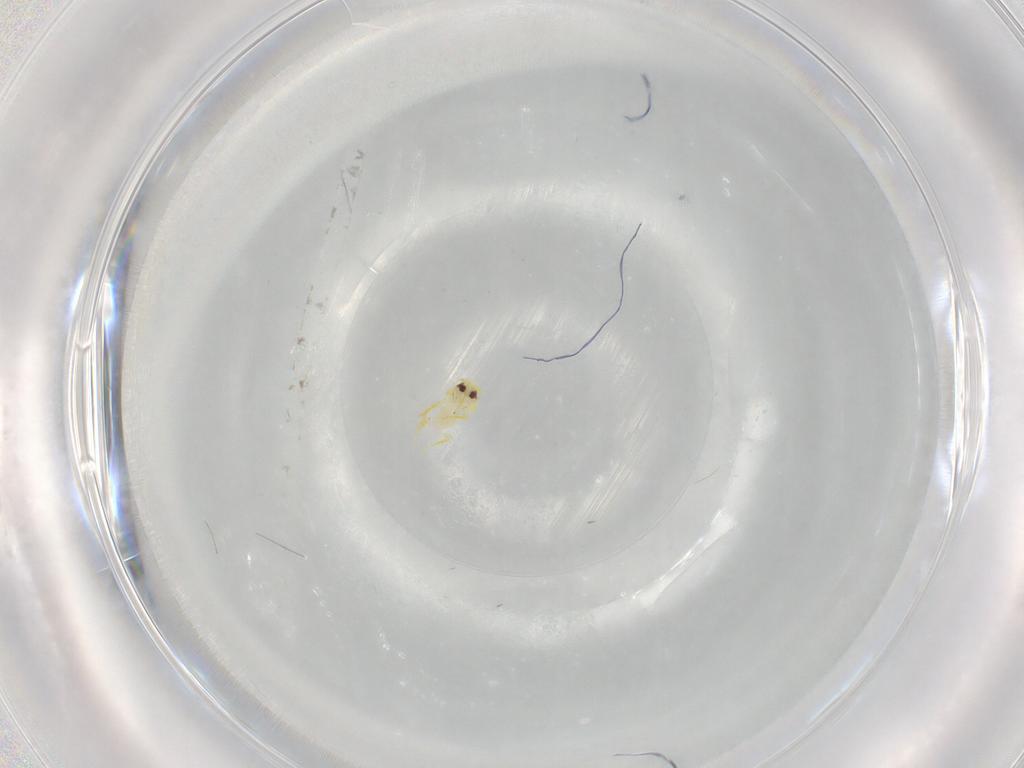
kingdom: Animalia
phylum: Arthropoda
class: Insecta
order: Hemiptera
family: Aleyrodidae
